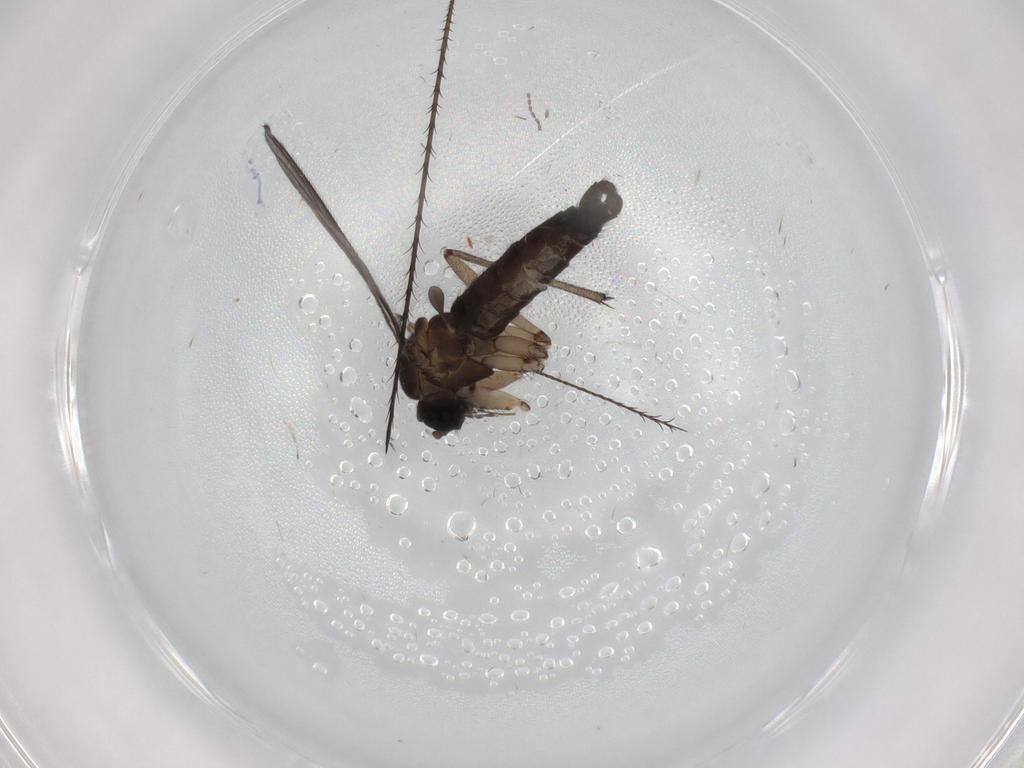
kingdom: Animalia
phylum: Arthropoda
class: Insecta
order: Diptera
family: Sciaridae
